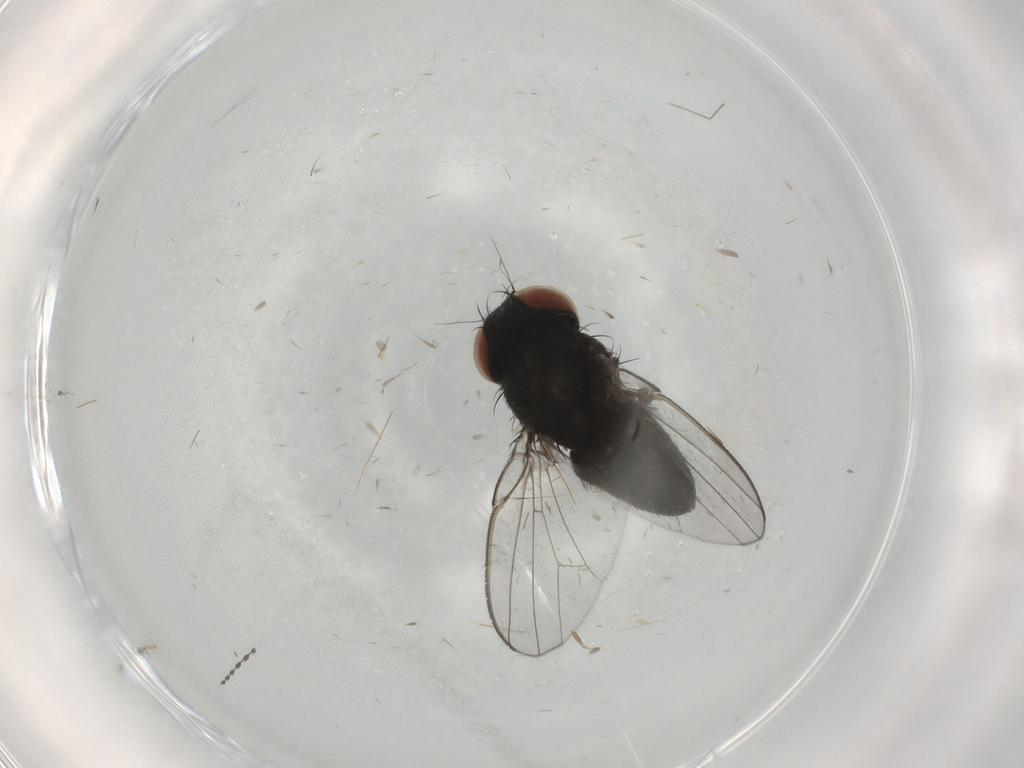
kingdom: Animalia
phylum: Arthropoda
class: Insecta
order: Diptera
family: Milichiidae
